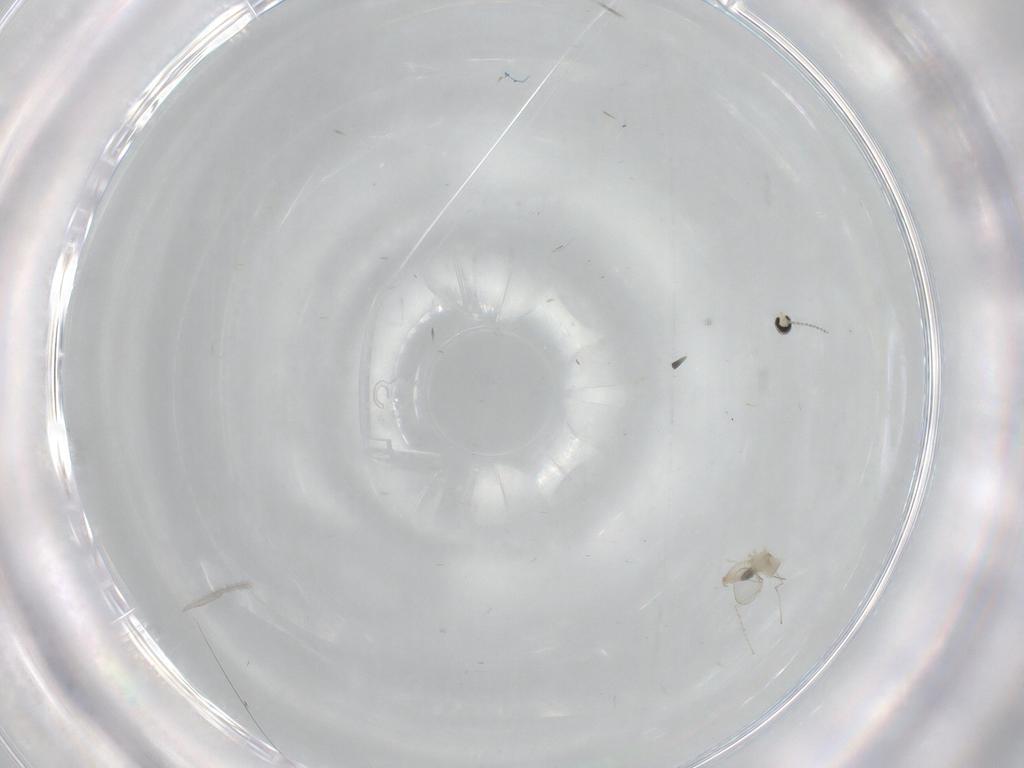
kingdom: Animalia
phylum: Arthropoda
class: Insecta
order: Diptera
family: Cecidomyiidae
